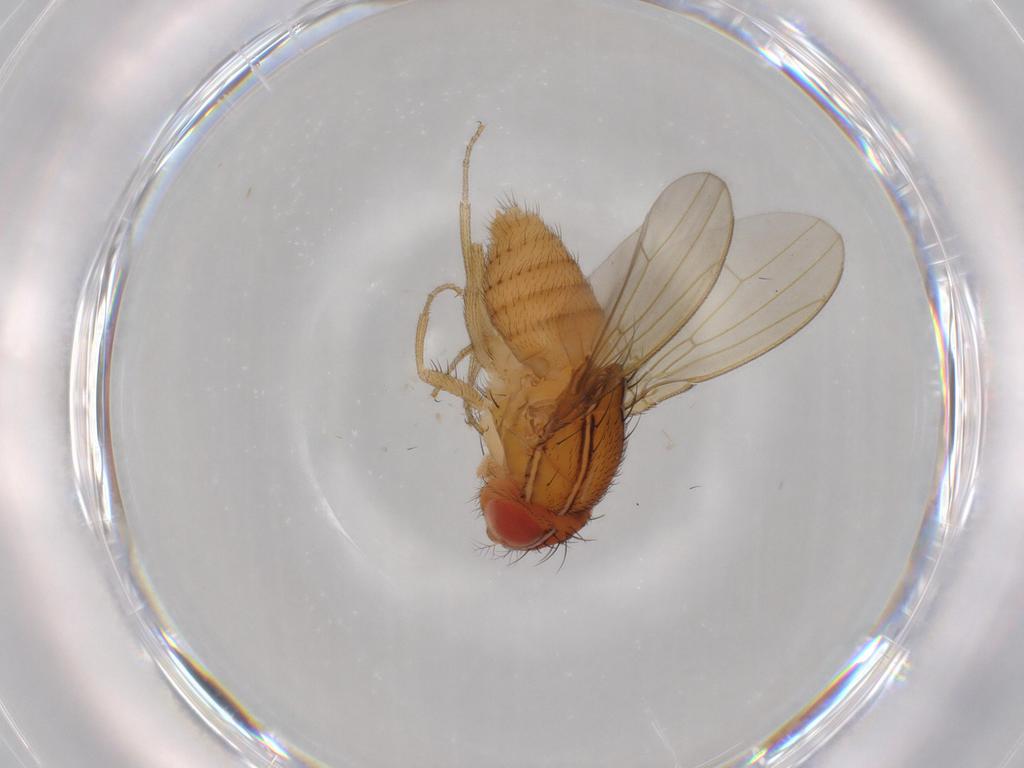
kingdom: Animalia
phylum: Arthropoda
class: Insecta
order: Diptera
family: Drosophilidae
